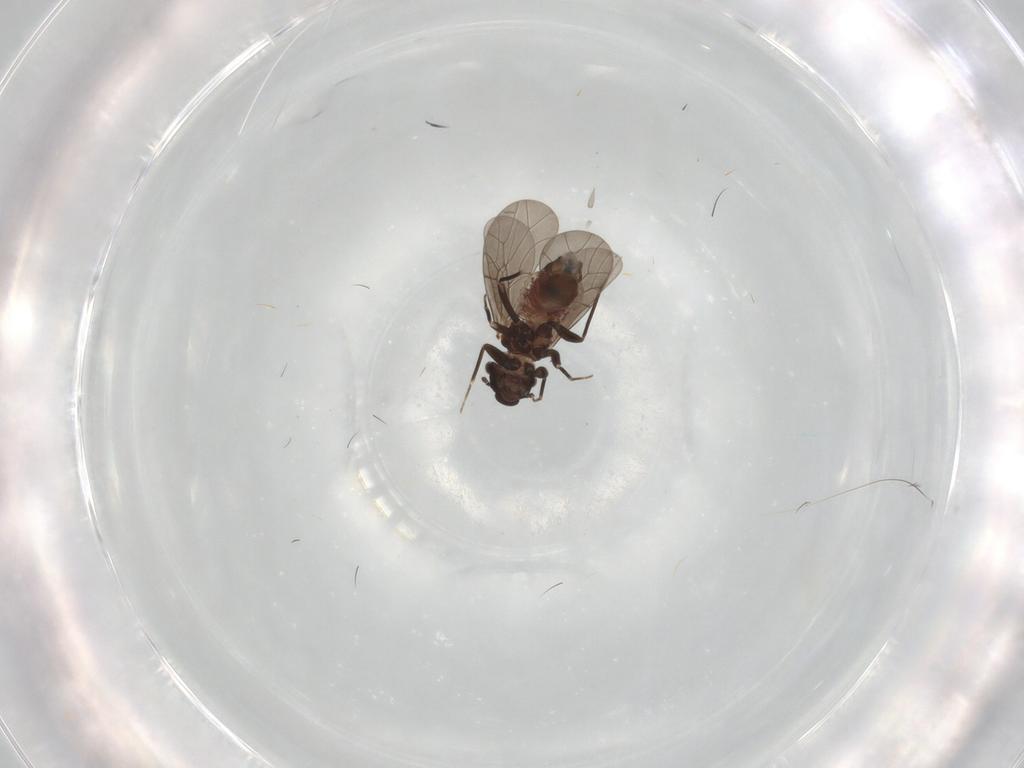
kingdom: Animalia
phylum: Arthropoda
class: Insecta
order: Psocodea
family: Lepidopsocidae
